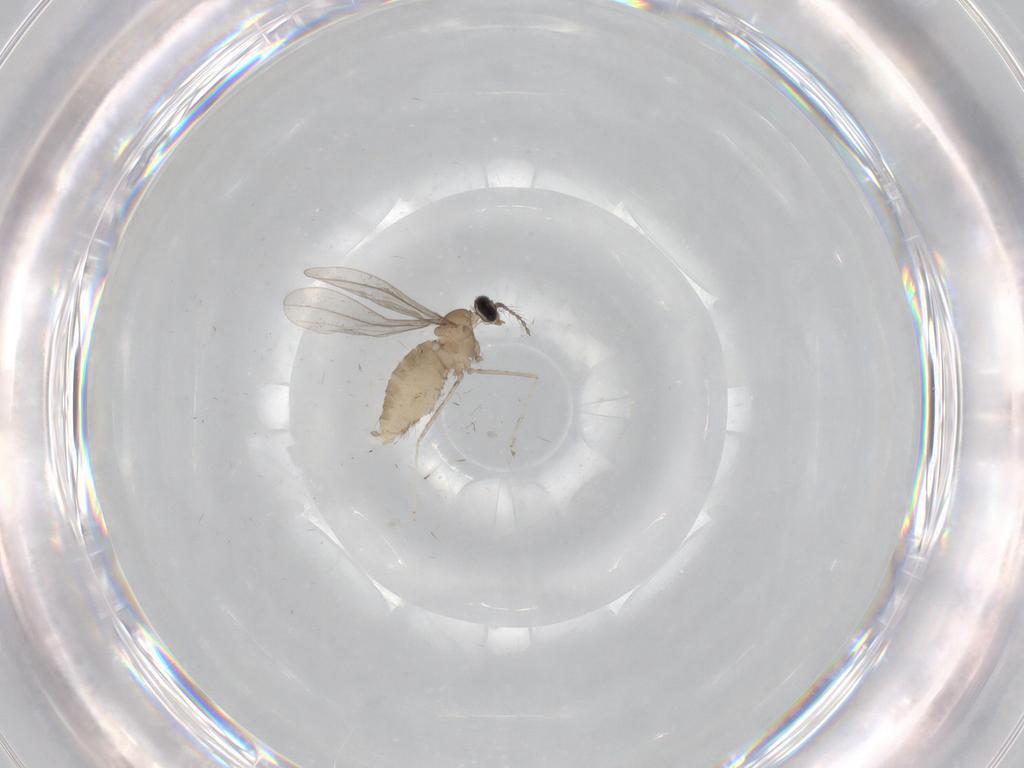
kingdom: Animalia
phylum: Arthropoda
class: Insecta
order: Diptera
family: Cecidomyiidae
